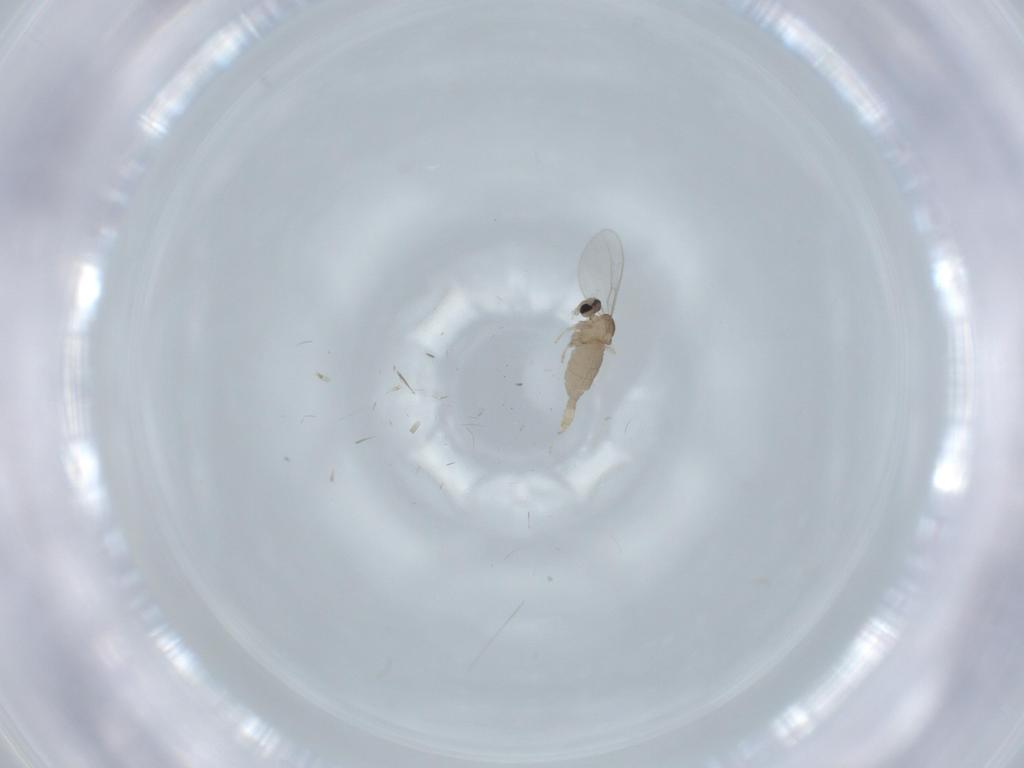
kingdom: Animalia
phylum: Arthropoda
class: Insecta
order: Diptera
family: Cecidomyiidae
